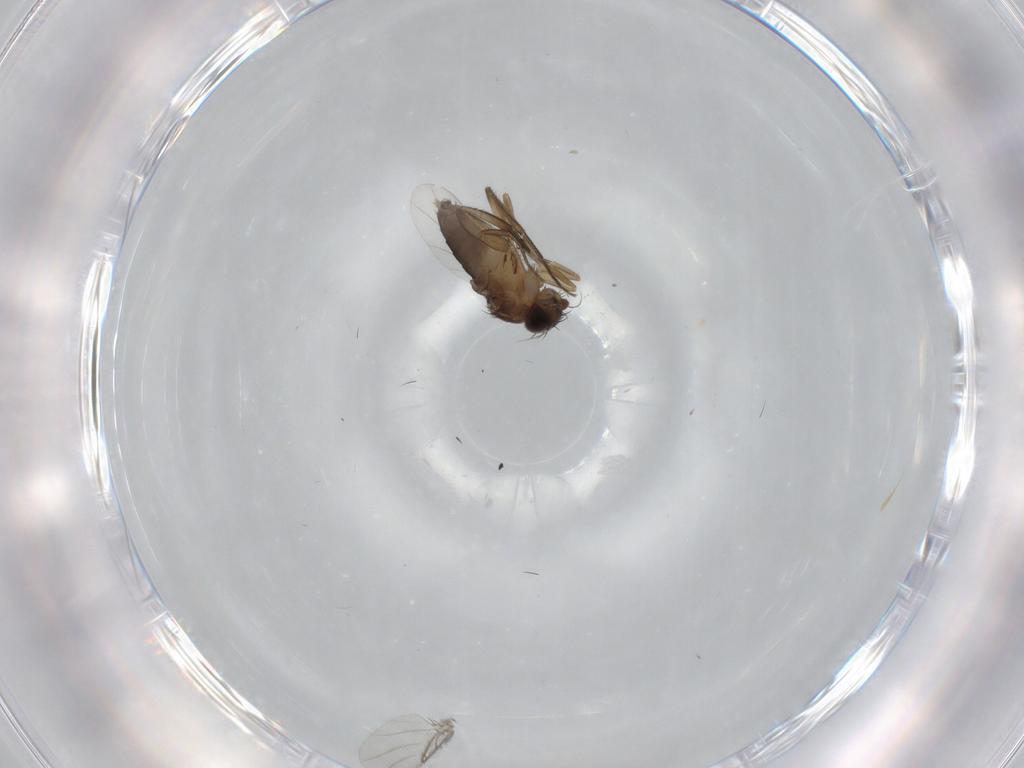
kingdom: Animalia
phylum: Arthropoda
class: Insecta
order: Diptera
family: Phoridae
